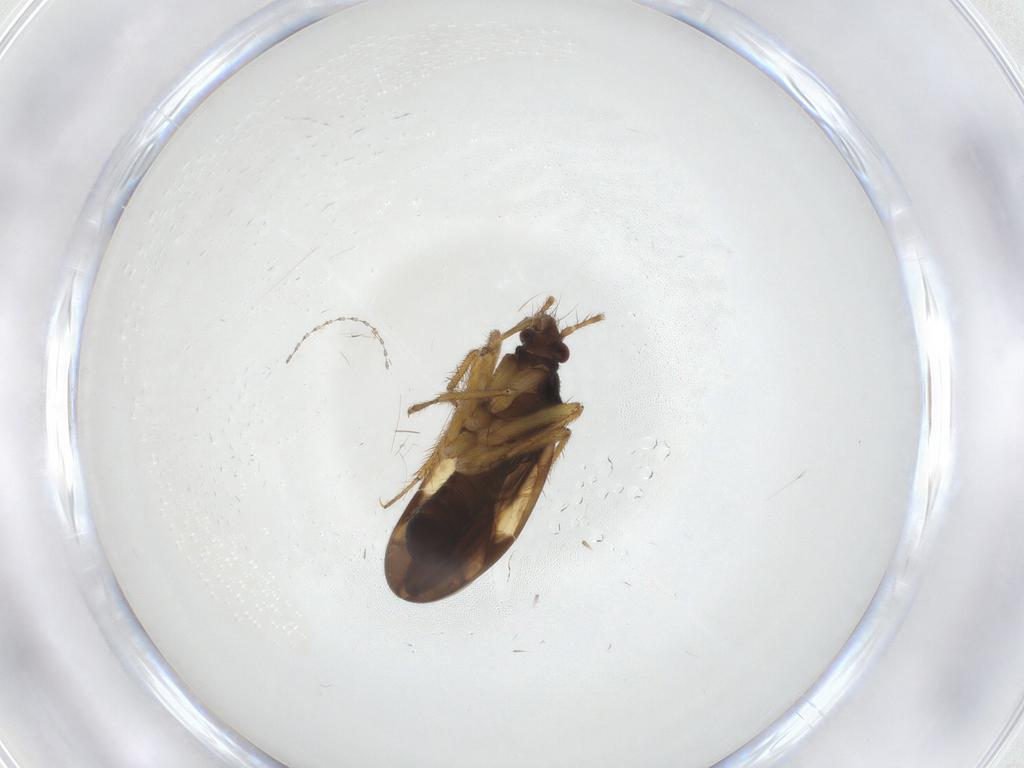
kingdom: Animalia
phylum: Arthropoda
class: Insecta
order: Hemiptera
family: Ceratocombidae
